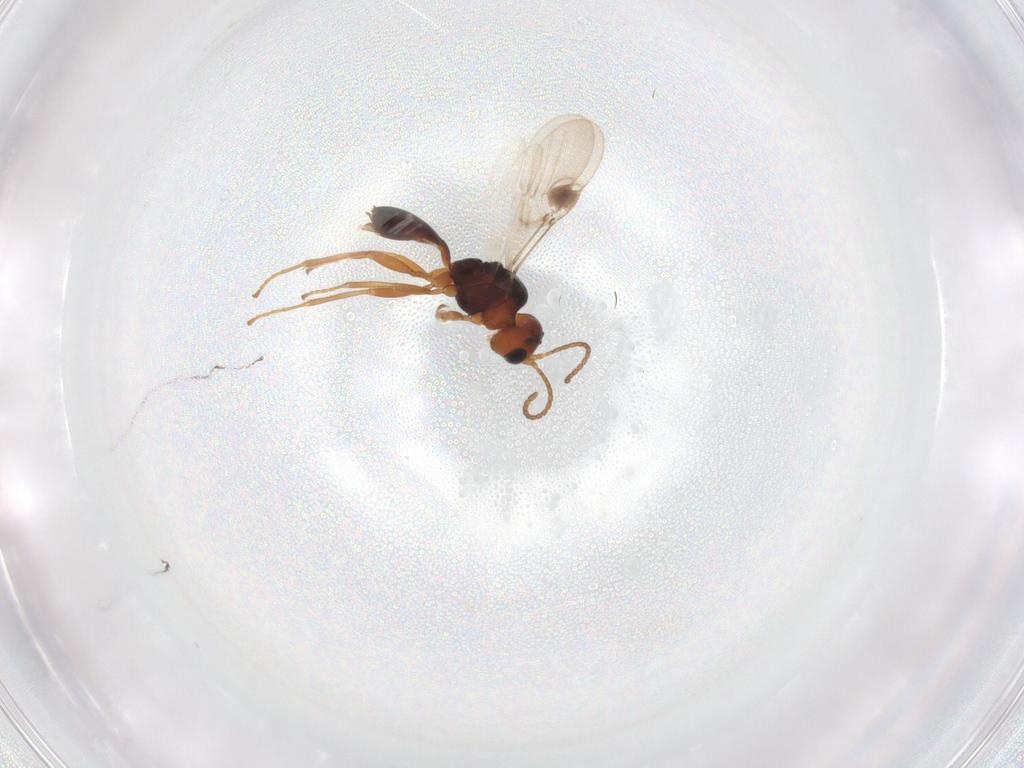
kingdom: Animalia
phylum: Arthropoda
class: Insecta
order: Hymenoptera
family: Braconidae
